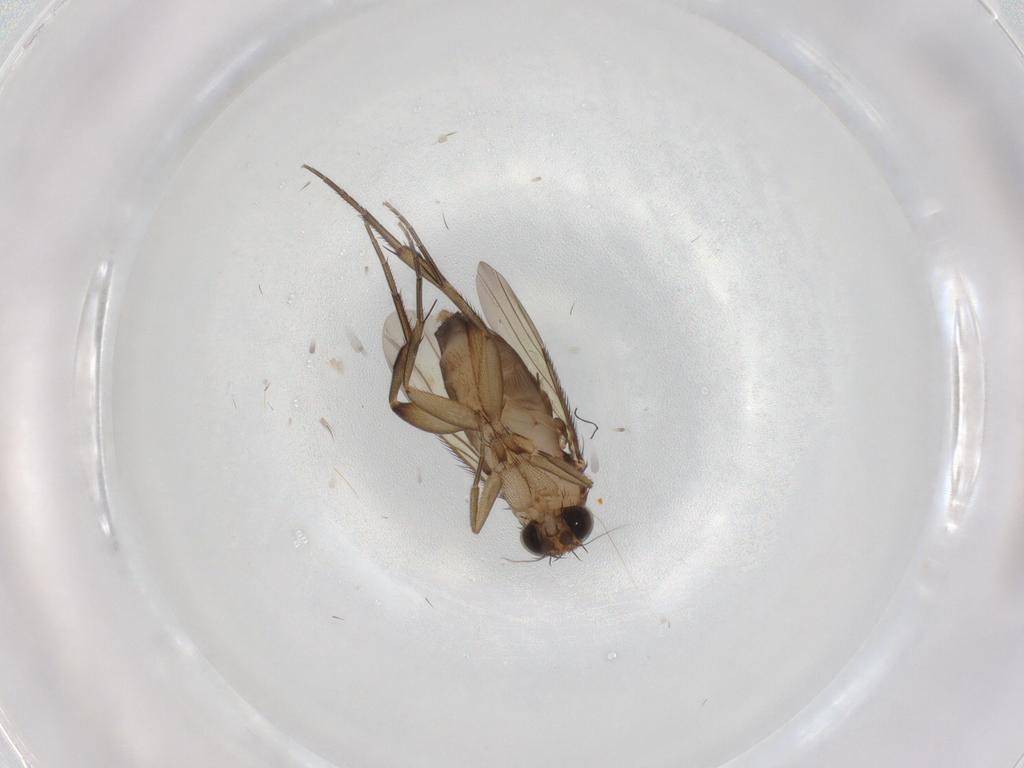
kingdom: Animalia
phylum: Arthropoda
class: Insecta
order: Diptera
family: Phoridae
